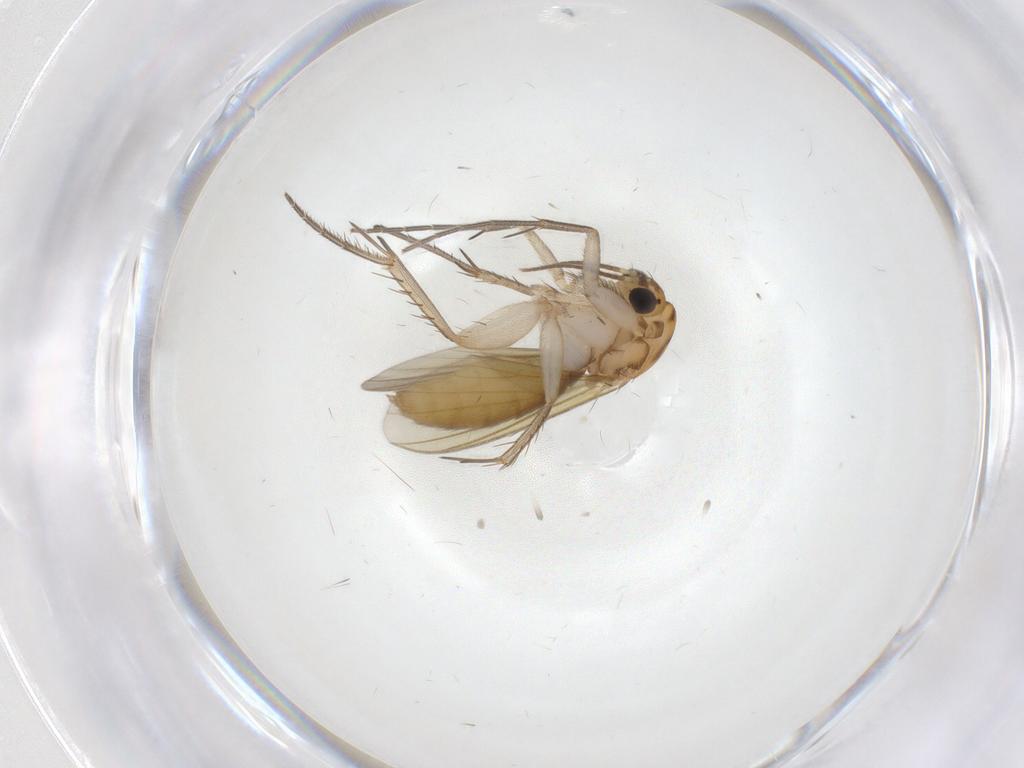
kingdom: Animalia
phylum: Arthropoda
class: Insecta
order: Diptera
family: Mycetophilidae
